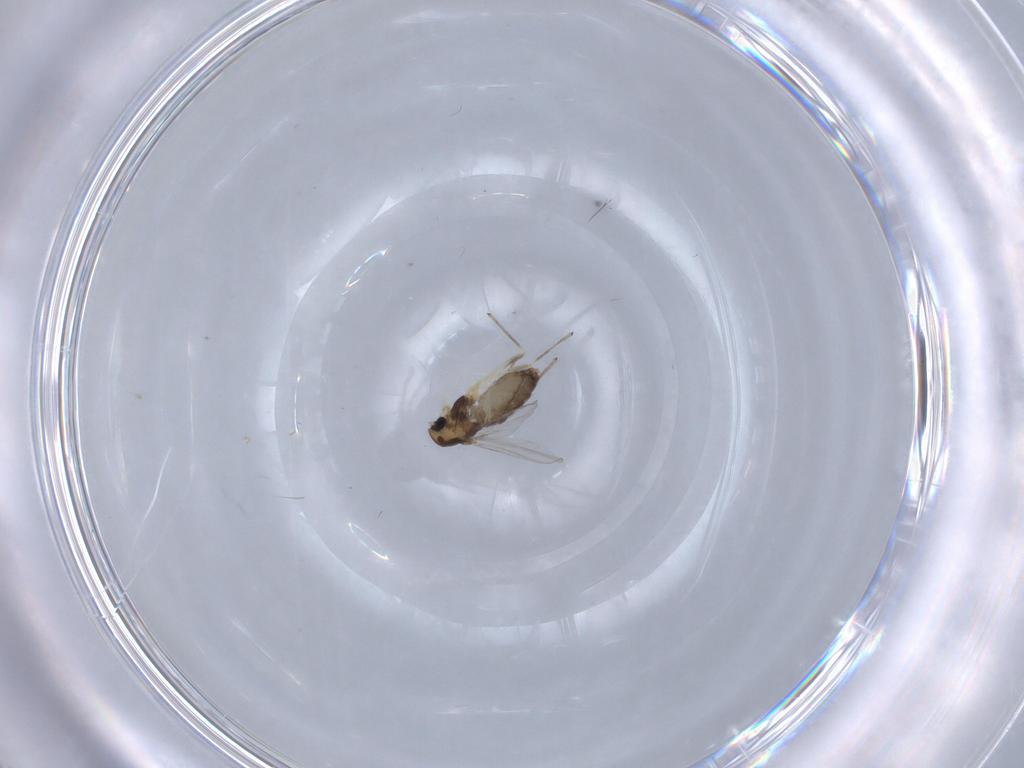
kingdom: Animalia
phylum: Arthropoda
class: Insecta
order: Diptera
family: Chironomidae
